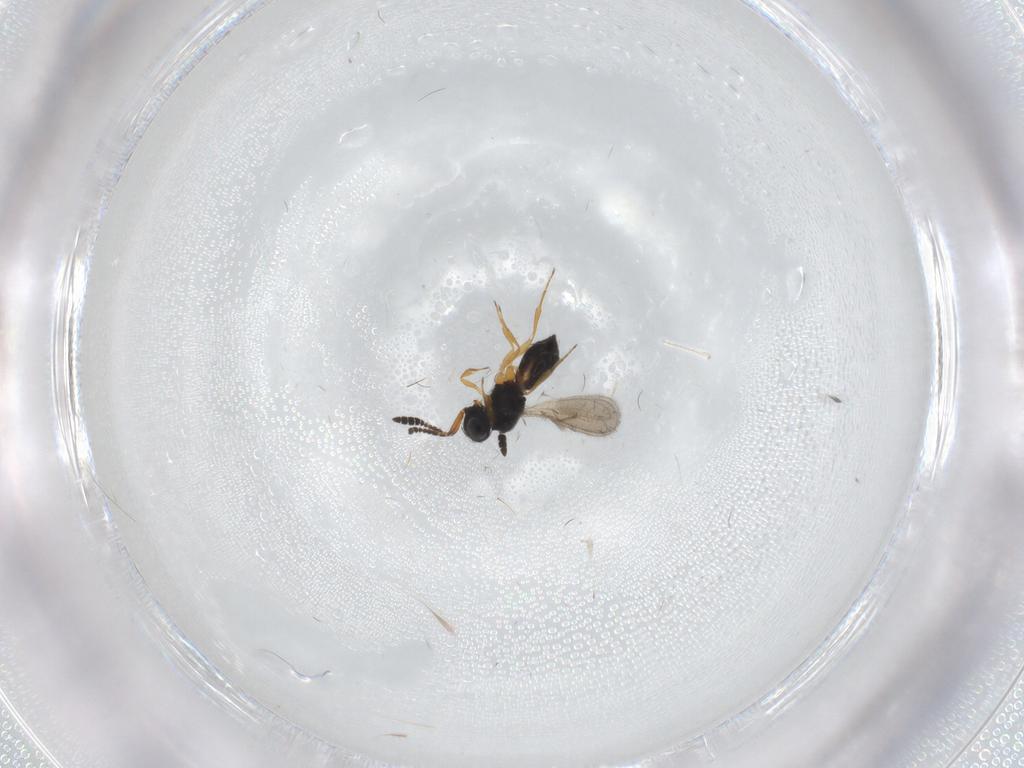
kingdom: Animalia
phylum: Arthropoda
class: Insecta
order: Hymenoptera
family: Scelionidae
